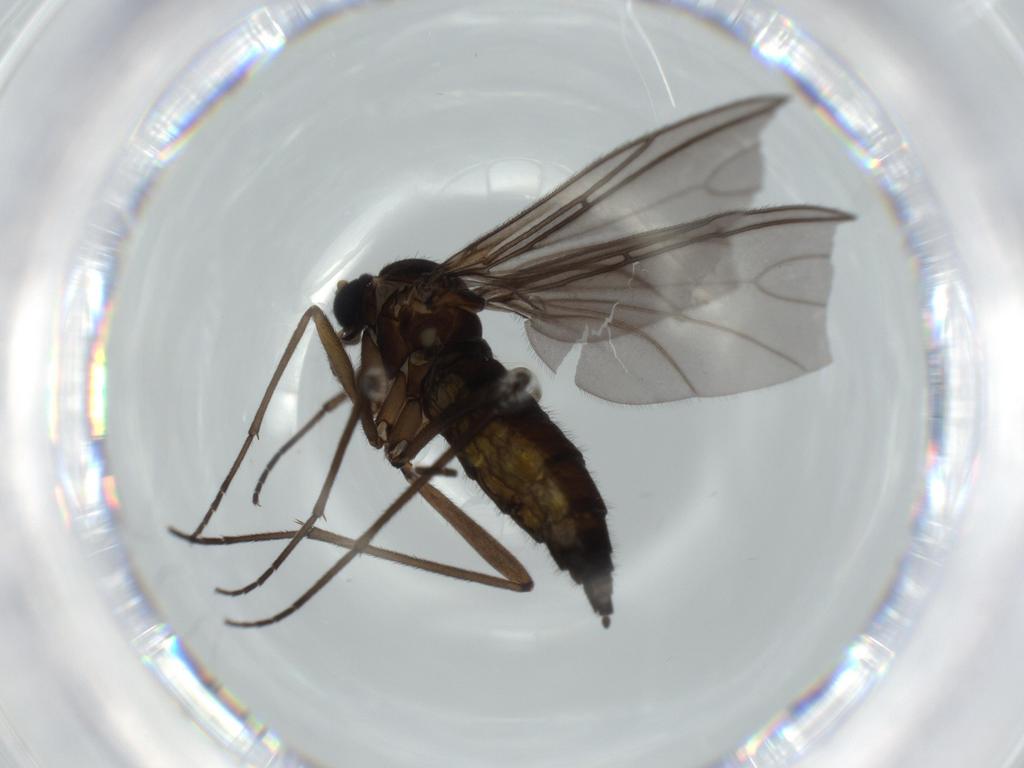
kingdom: Animalia
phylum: Arthropoda
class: Insecta
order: Diptera
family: Sciaridae
